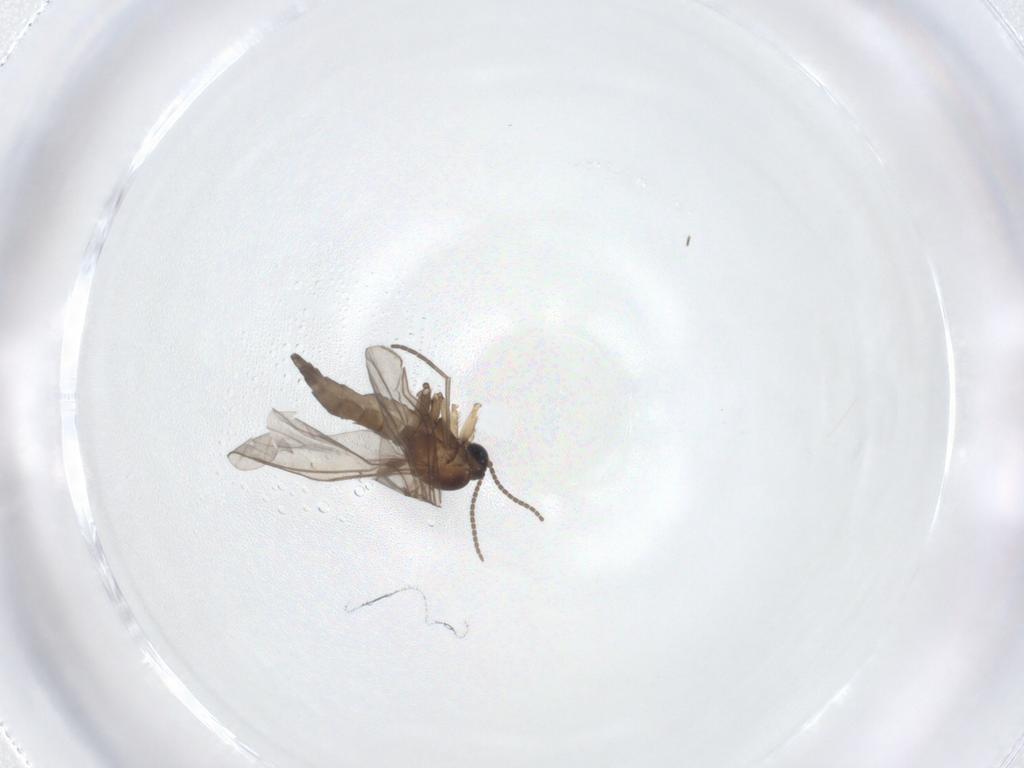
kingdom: Animalia
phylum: Arthropoda
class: Insecta
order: Diptera
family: Sciaridae
